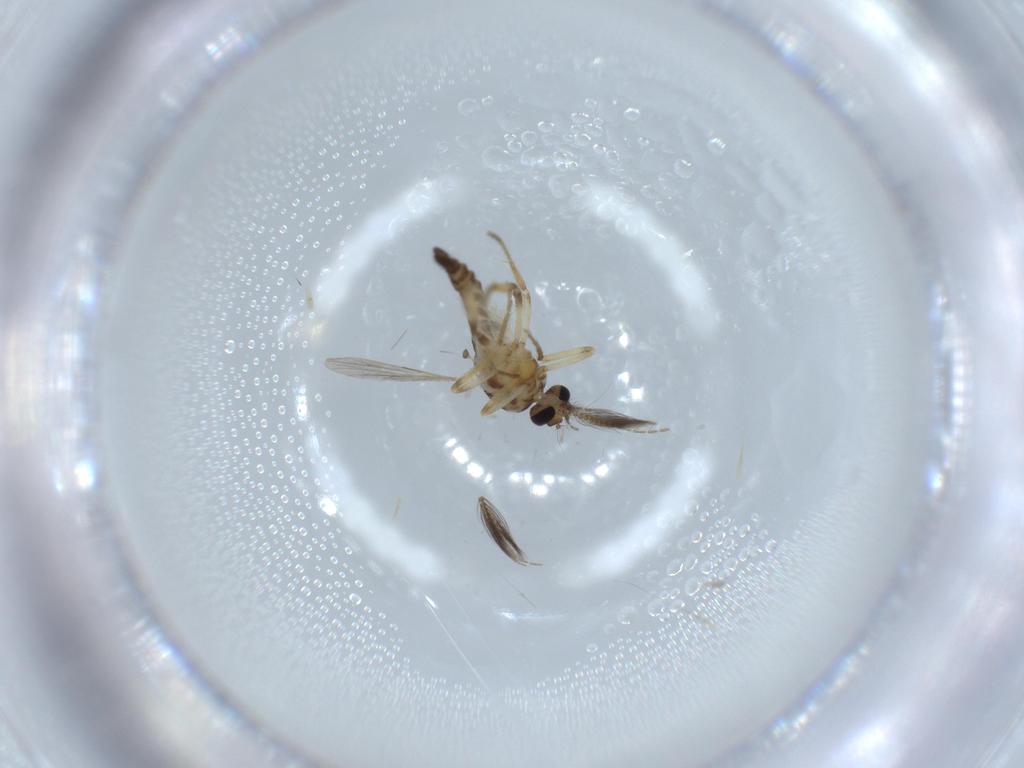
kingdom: Animalia
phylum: Arthropoda
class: Insecta
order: Diptera
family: Ceratopogonidae
